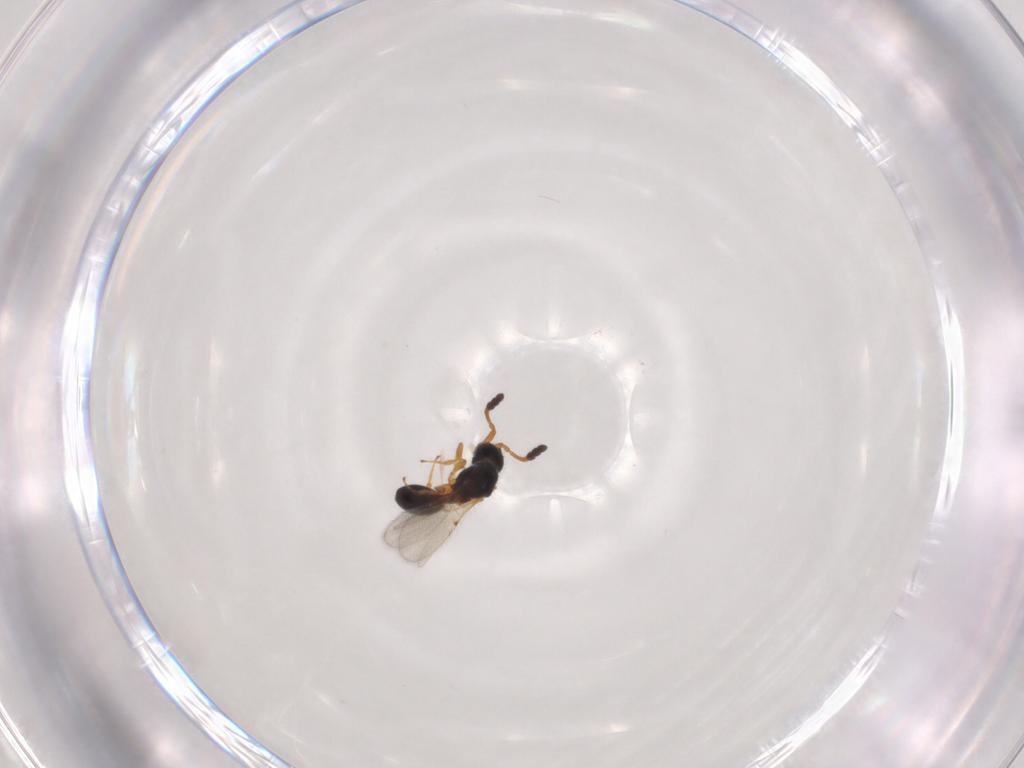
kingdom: Animalia
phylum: Arthropoda
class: Insecta
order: Hymenoptera
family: Diapriidae
